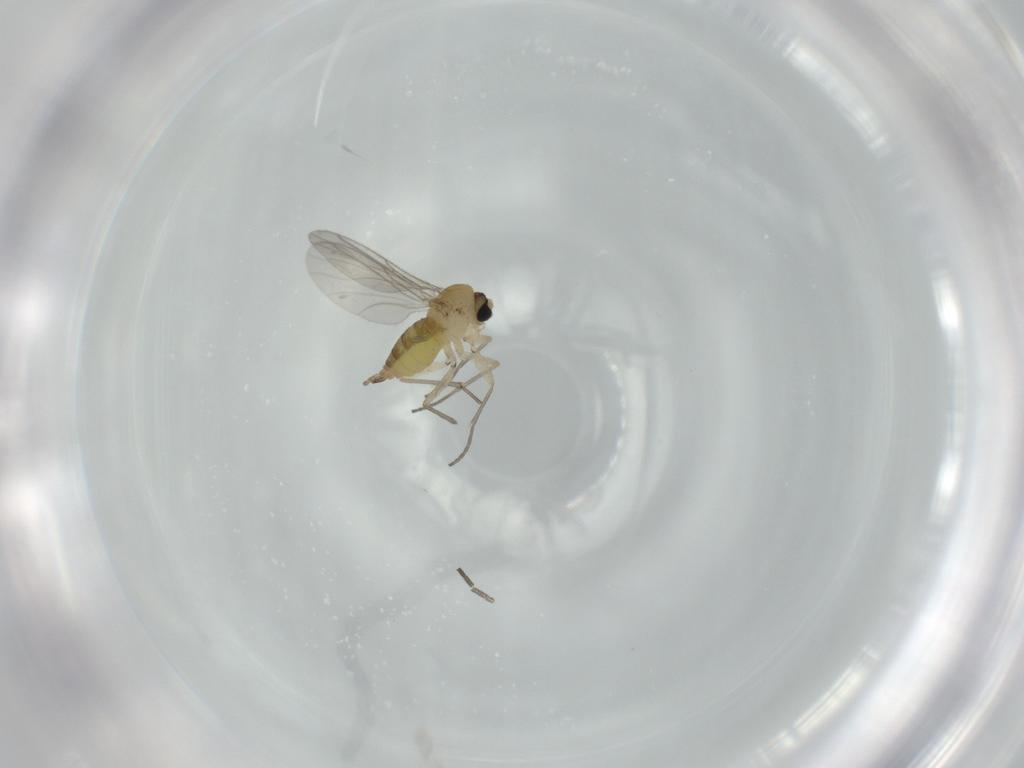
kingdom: Animalia
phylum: Arthropoda
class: Insecta
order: Diptera
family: Sciaridae
